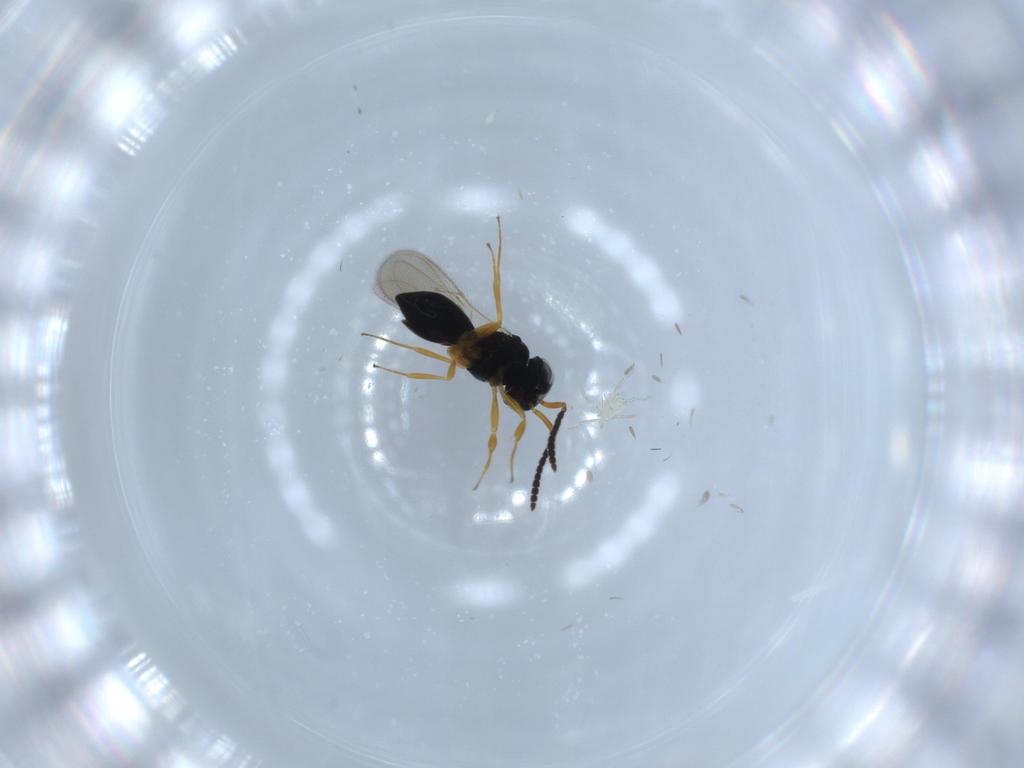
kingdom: Animalia
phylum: Arthropoda
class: Insecta
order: Hymenoptera
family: Scelionidae
